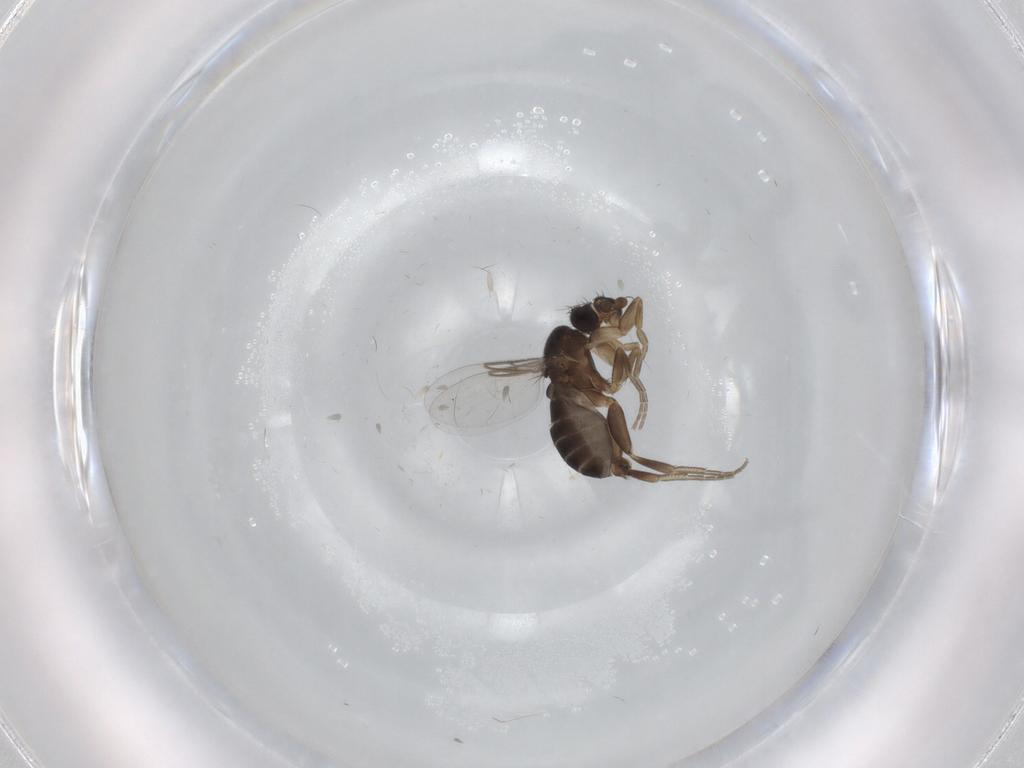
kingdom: Animalia
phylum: Arthropoda
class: Insecta
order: Diptera
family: Phoridae
